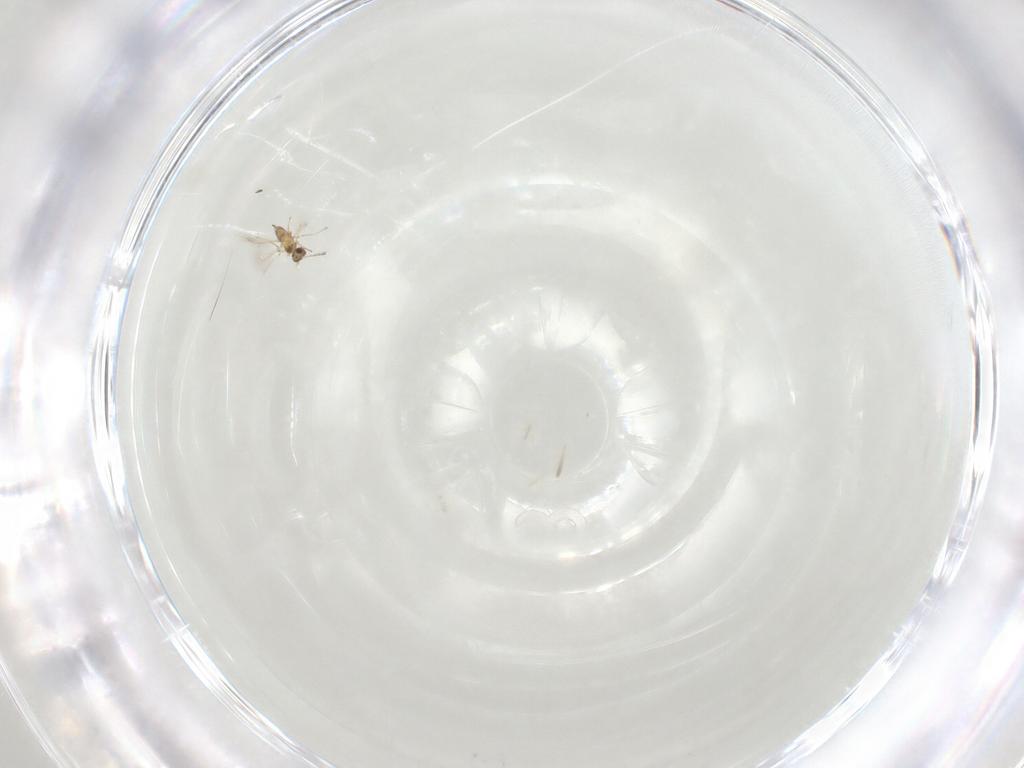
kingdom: Animalia
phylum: Arthropoda
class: Insecta
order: Hymenoptera
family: Mymaridae
